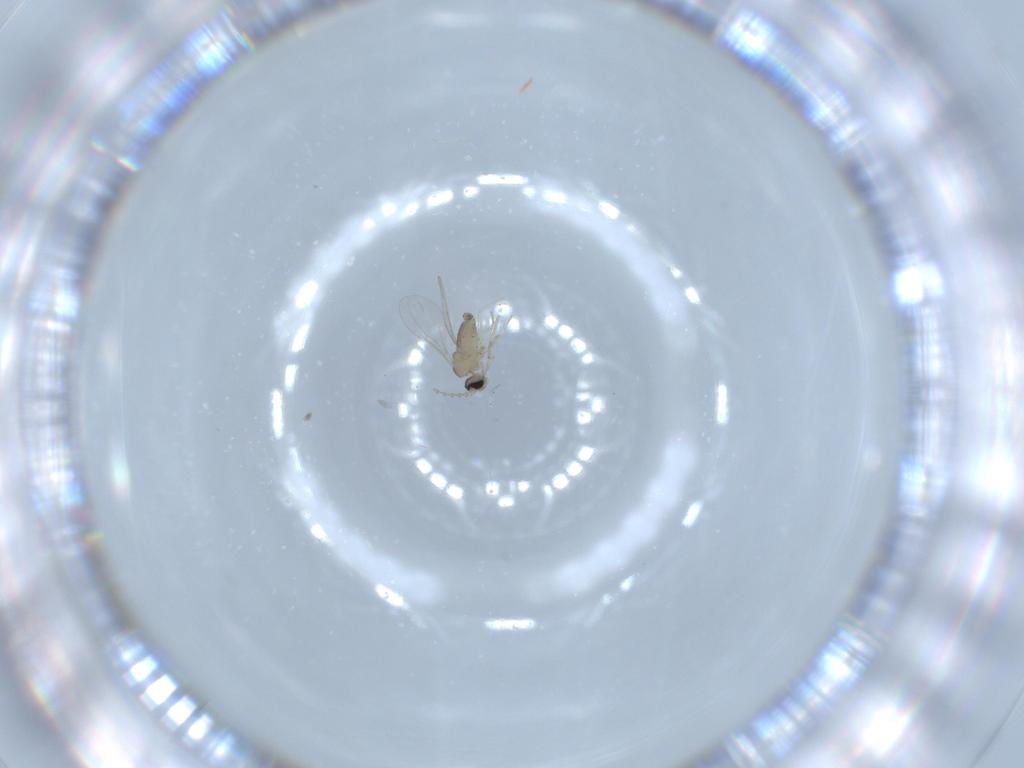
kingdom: Animalia
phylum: Arthropoda
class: Insecta
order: Diptera
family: Cecidomyiidae
